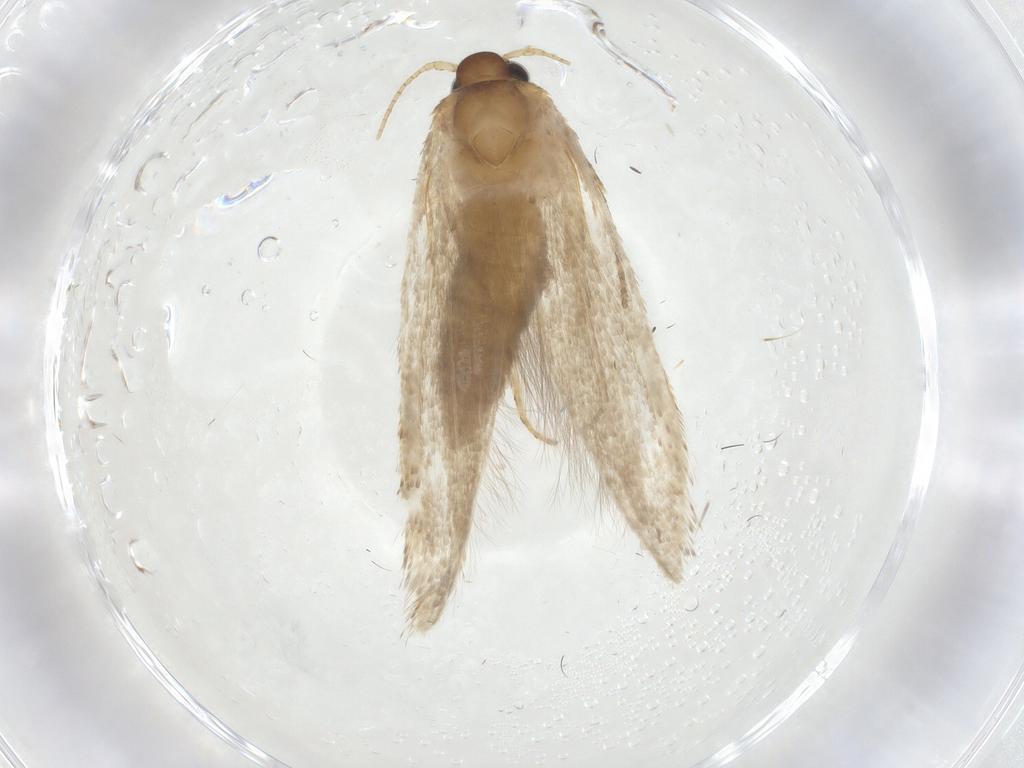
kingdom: Animalia
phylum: Arthropoda
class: Insecta
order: Lepidoptera
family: Blastobasidae
